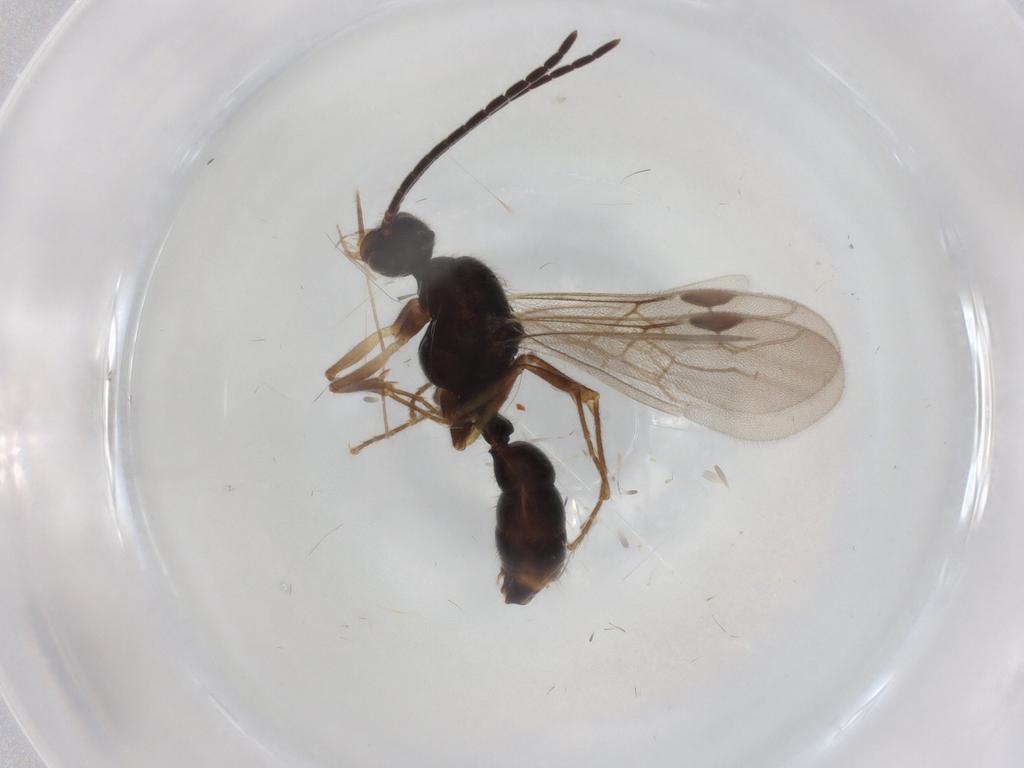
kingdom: Animalia
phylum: Arthropoda
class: Insecta
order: Hymenoptera
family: Formicidae
